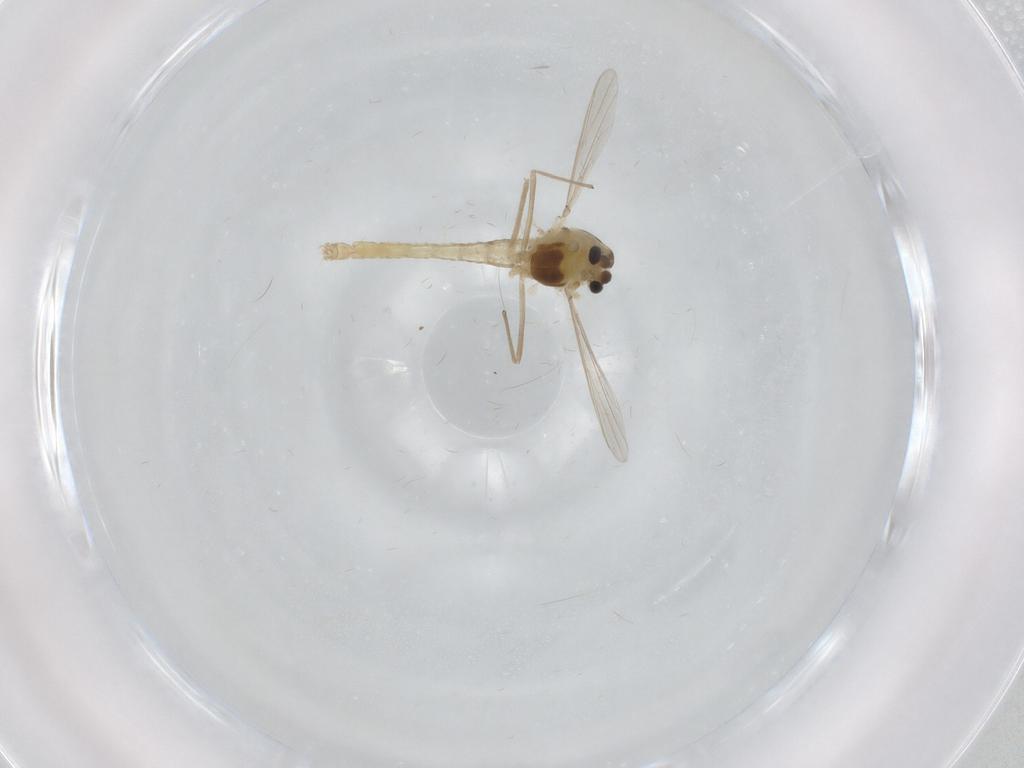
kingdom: Animalia
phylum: Arthropoda
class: Insecta
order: Diptera
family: Chironomidae
